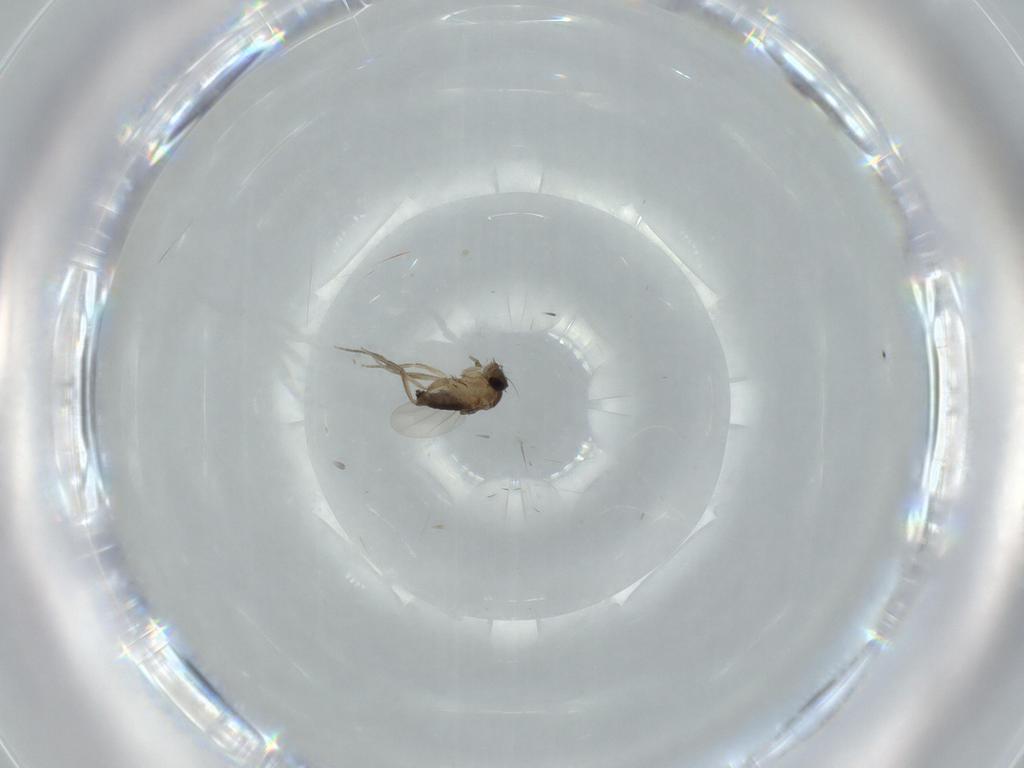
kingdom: Animalia
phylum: Arthropoda
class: Insecta
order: Diptera
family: Phoridae
